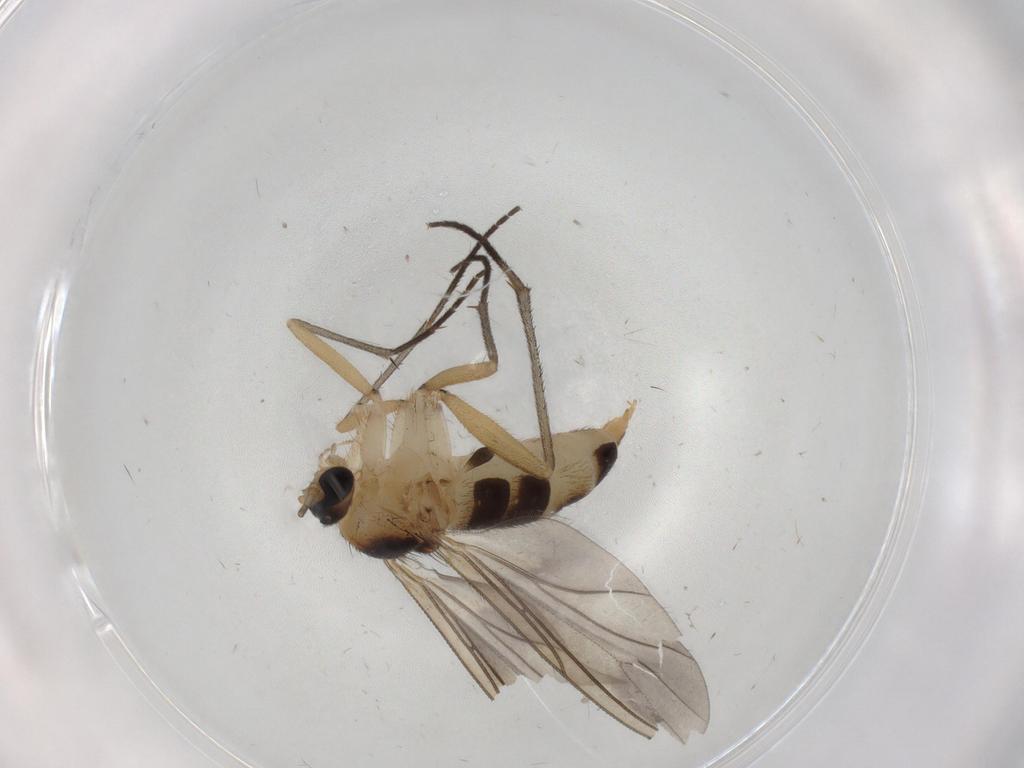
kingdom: Animalia
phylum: Arthropoda
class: Insecta
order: Diptera
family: Sciaridae
